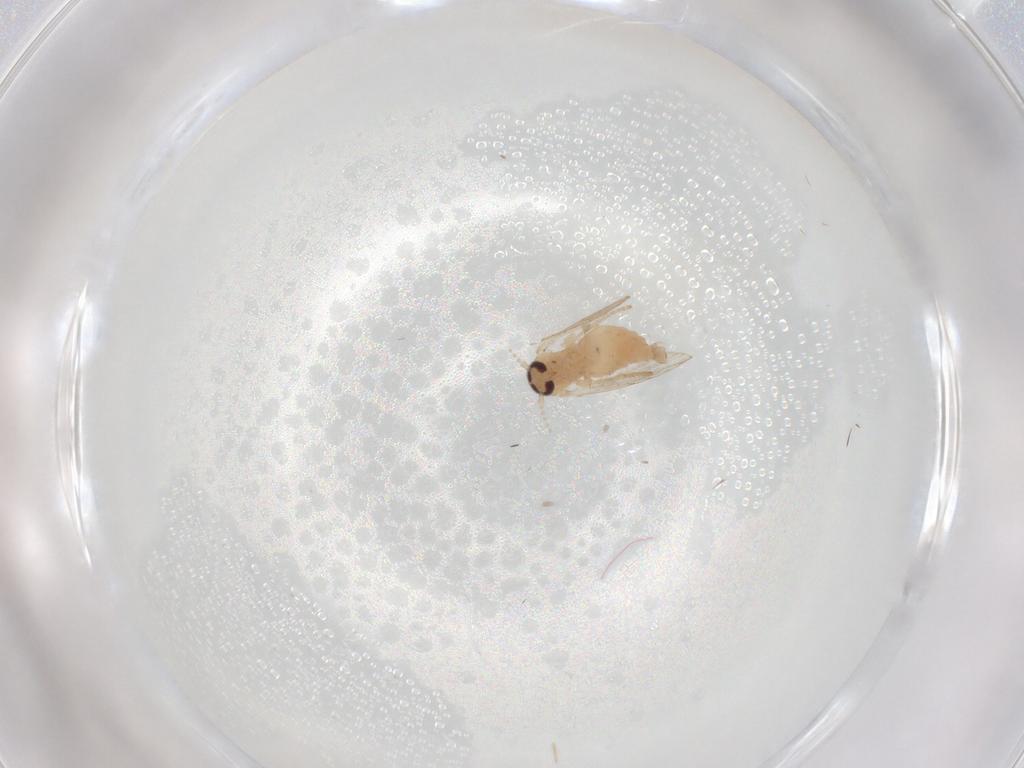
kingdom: Animalia
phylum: Arthropoda
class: Insecta
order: Diptera
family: Psychodidae
